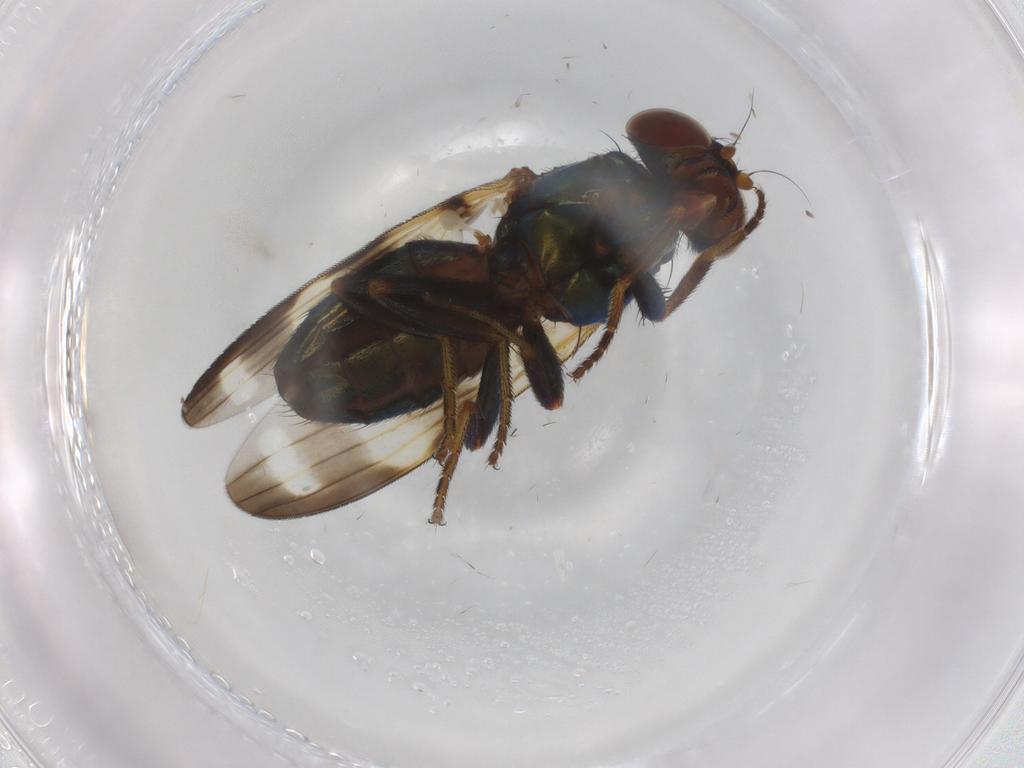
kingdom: Animalia
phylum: Arthropoda
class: Insecta
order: Diptera
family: Ulidiidae
